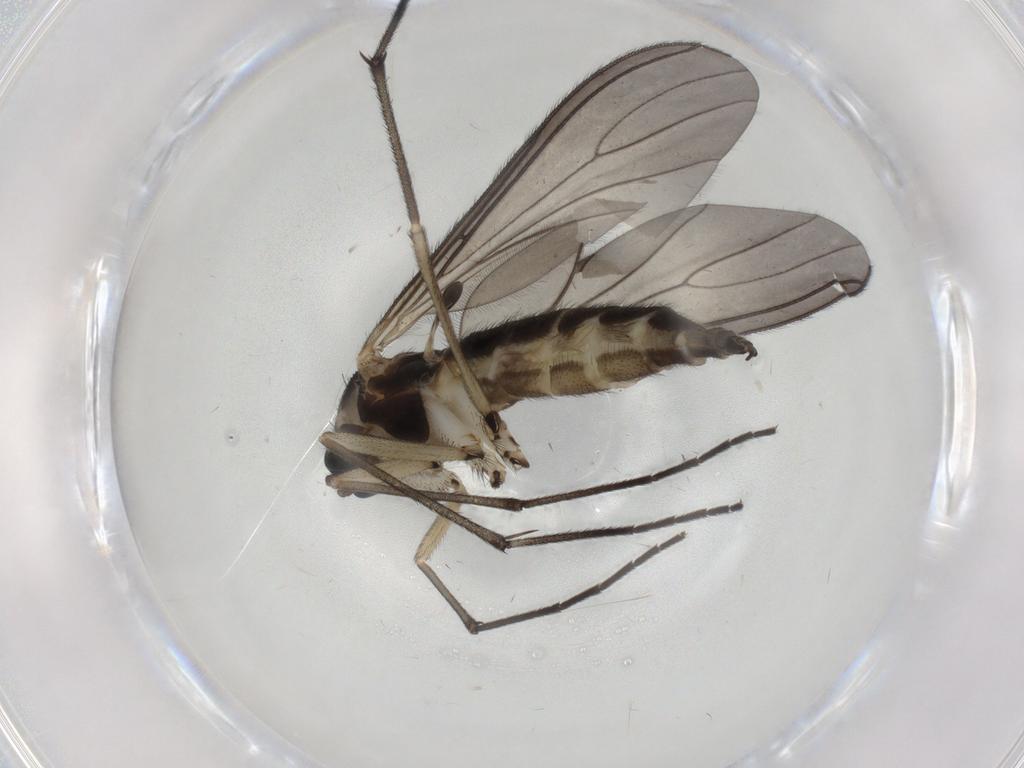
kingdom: Animalia
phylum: Arthropoda
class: Insecta
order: Diptera
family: Sciaridae
